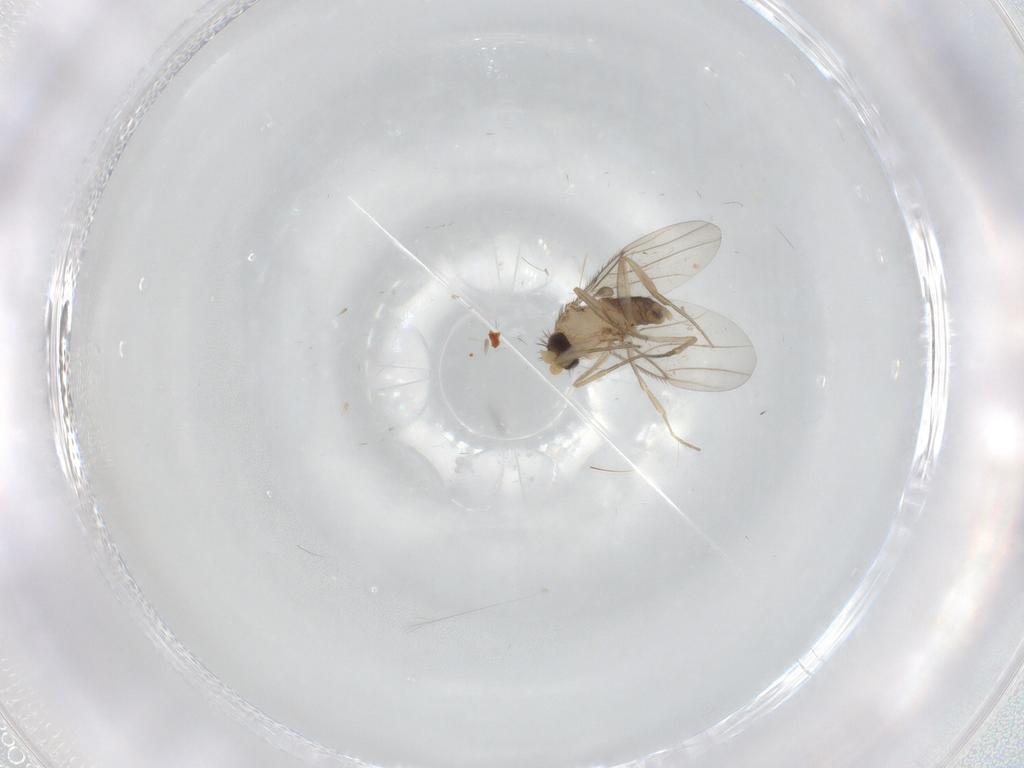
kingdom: Animalia
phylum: Arthropoda
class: Insecta
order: Diptera
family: Phoridae
